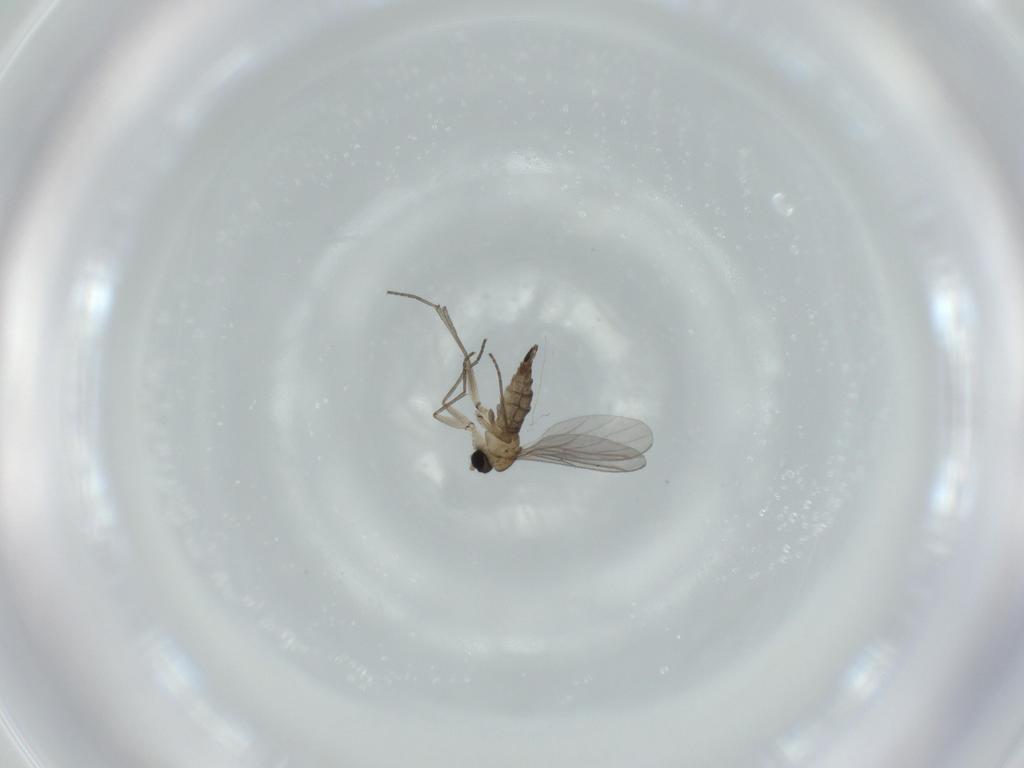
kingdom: Animalia
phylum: Arthropoda
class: Insecta
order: Diptera
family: Sciaridae
